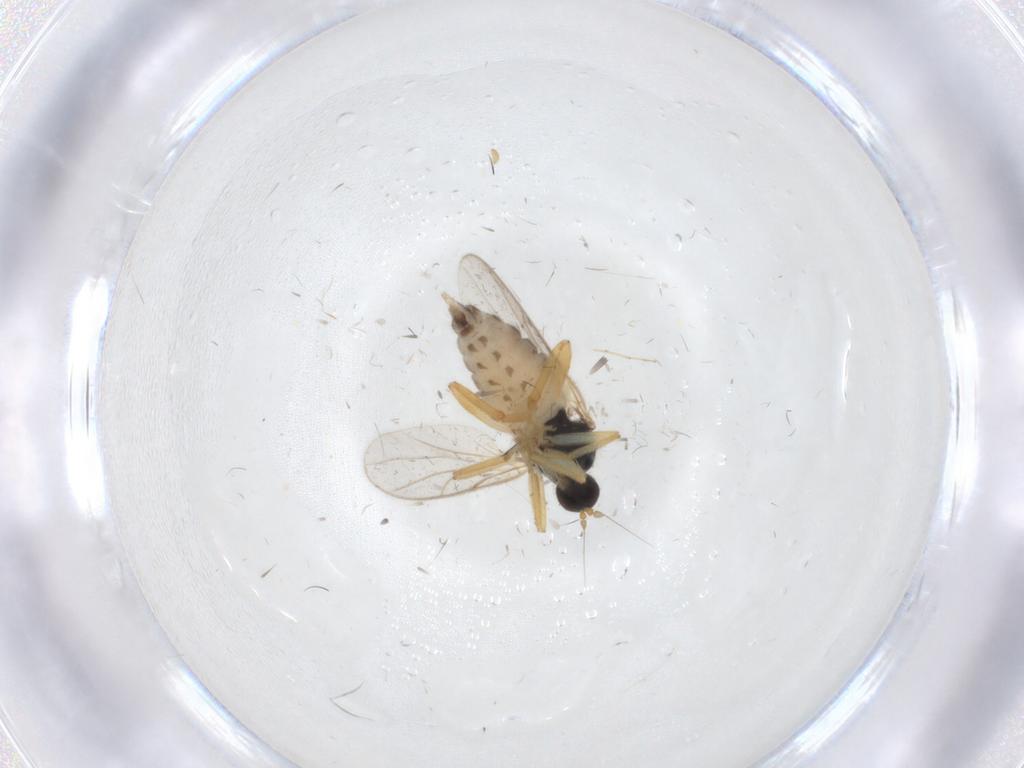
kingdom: Animalia
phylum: Arthropoda
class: Insecta
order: Diptera
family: Hybotidae
